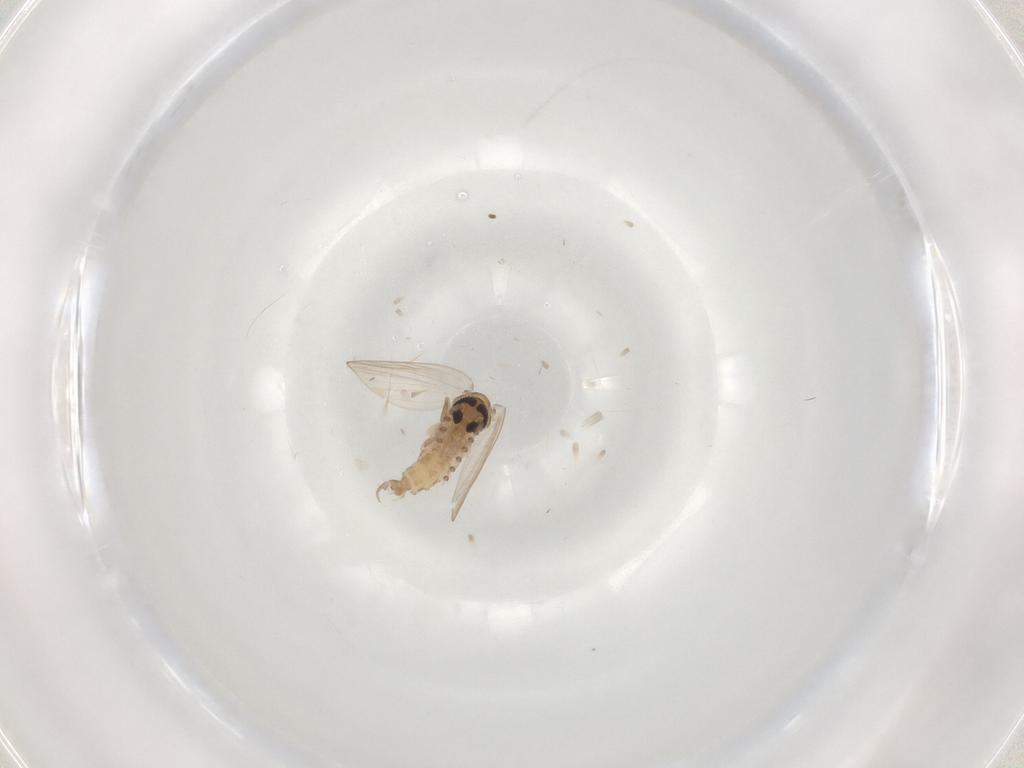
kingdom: Animalia
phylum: Arthropoda
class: Insecta
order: Diptera
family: Psychodidae
